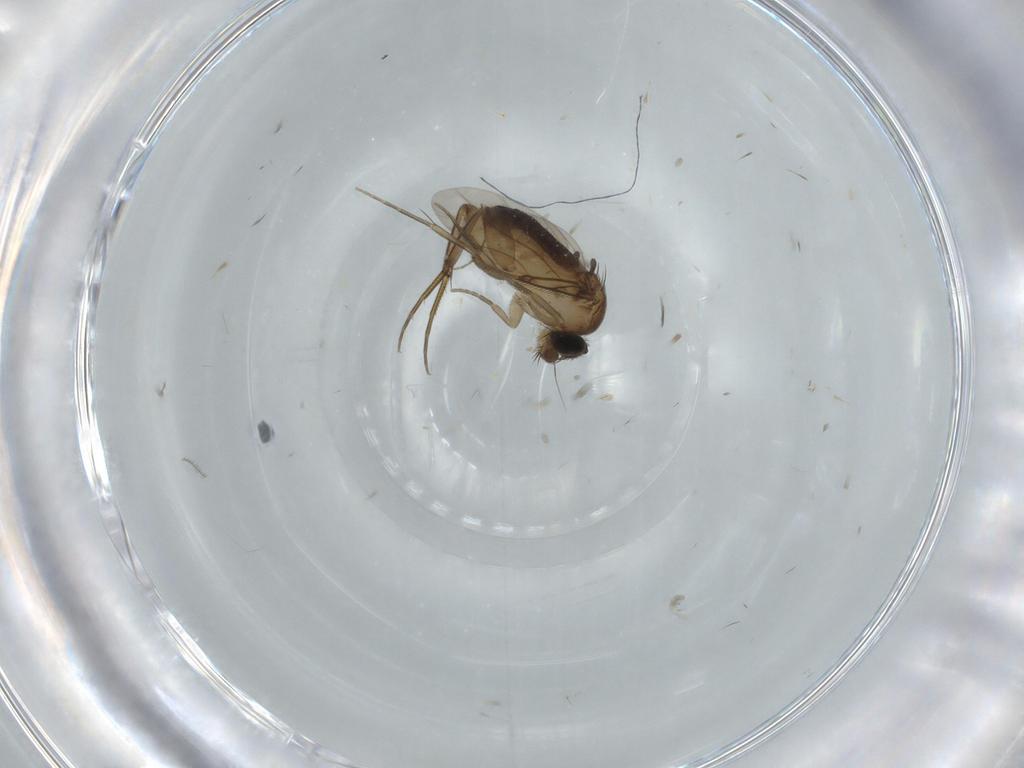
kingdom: Animalia
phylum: Arthropoda
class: Insecta
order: Diptera
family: Phoridae
